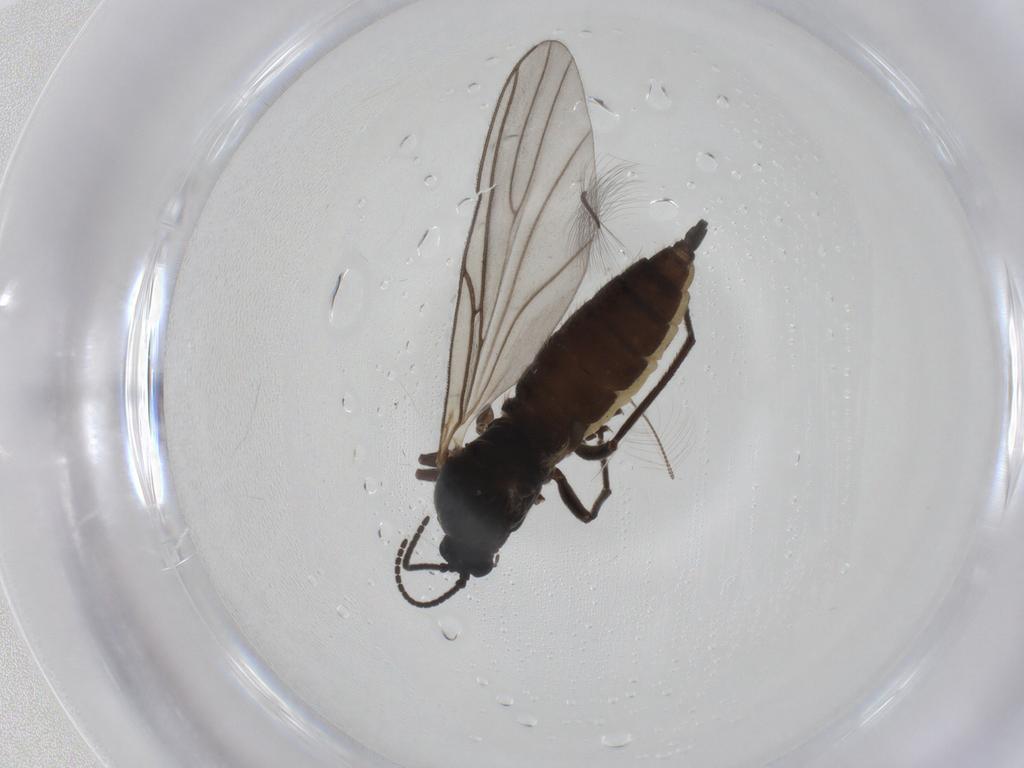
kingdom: Animalia
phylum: Arthropoda
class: Insecta
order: Diptera
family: Sciaridae
